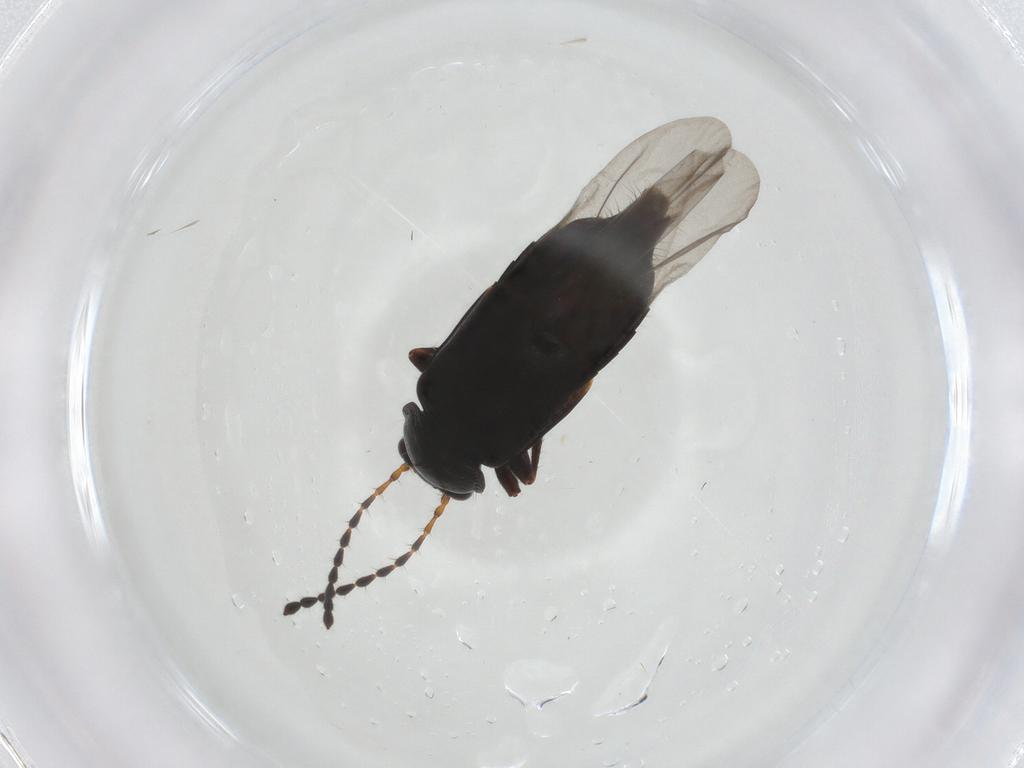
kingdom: Animalia
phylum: Arthropoda
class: Insecta
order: Coleoptera
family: Staphylinidae
